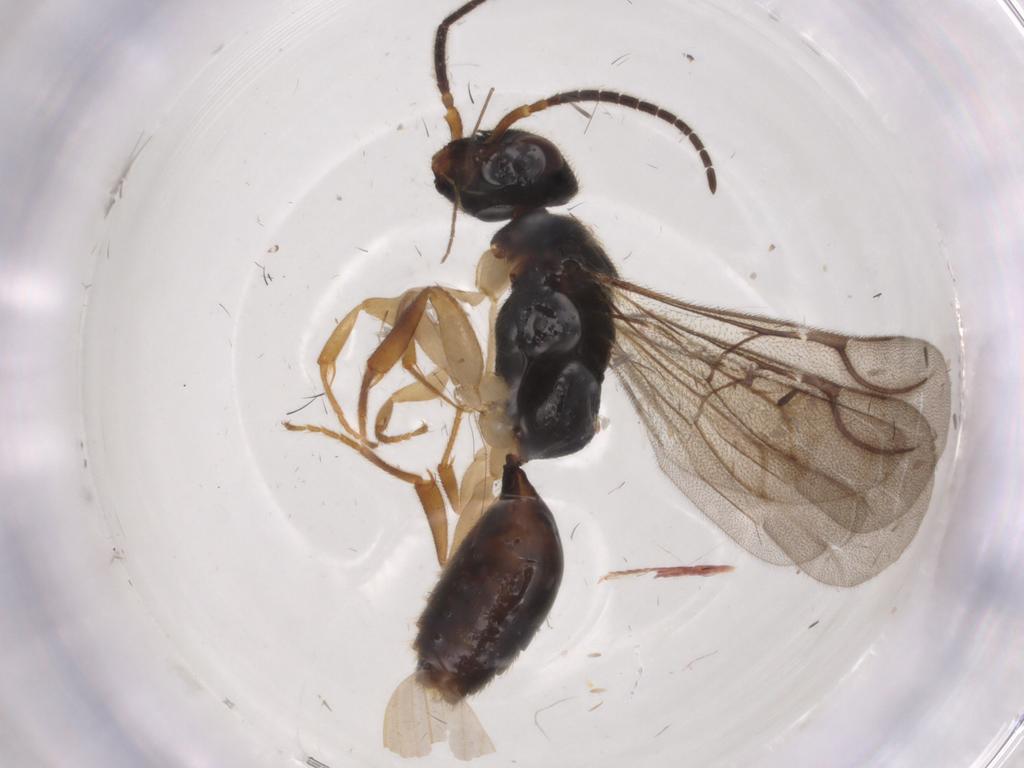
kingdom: Animalia
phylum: Arthropoda
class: Insecta
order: Hymenoptera
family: Bethylidae
